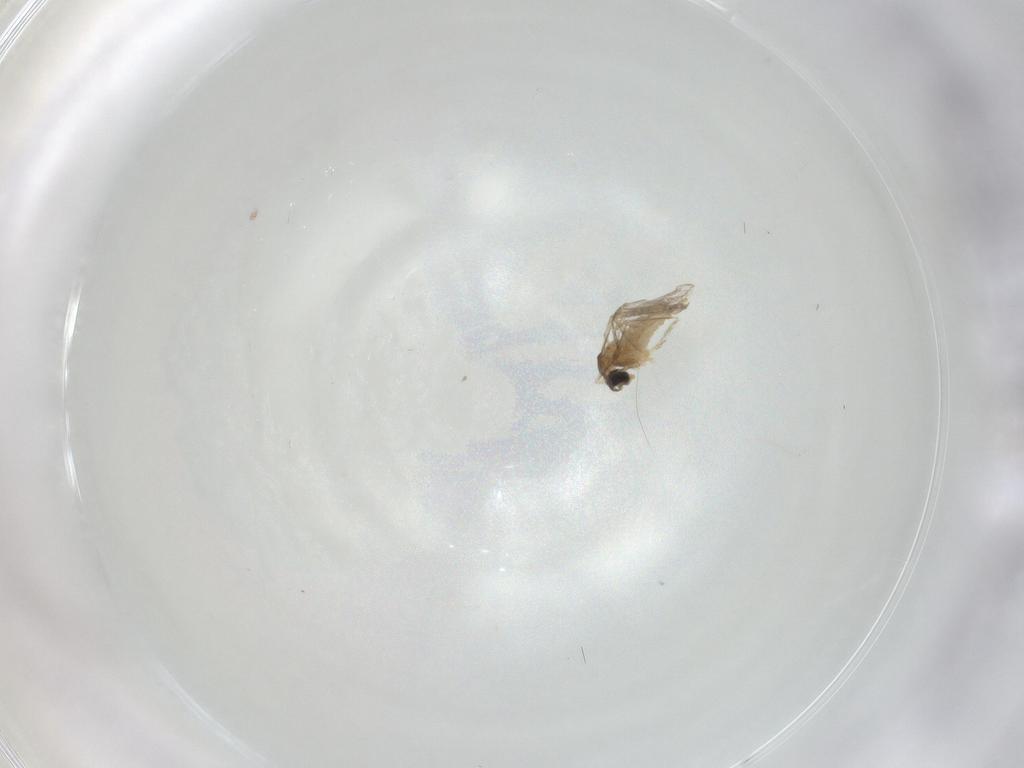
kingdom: Animalia
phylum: Arthropoda
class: Insecta
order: Diptera
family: Cecidomyiidae
